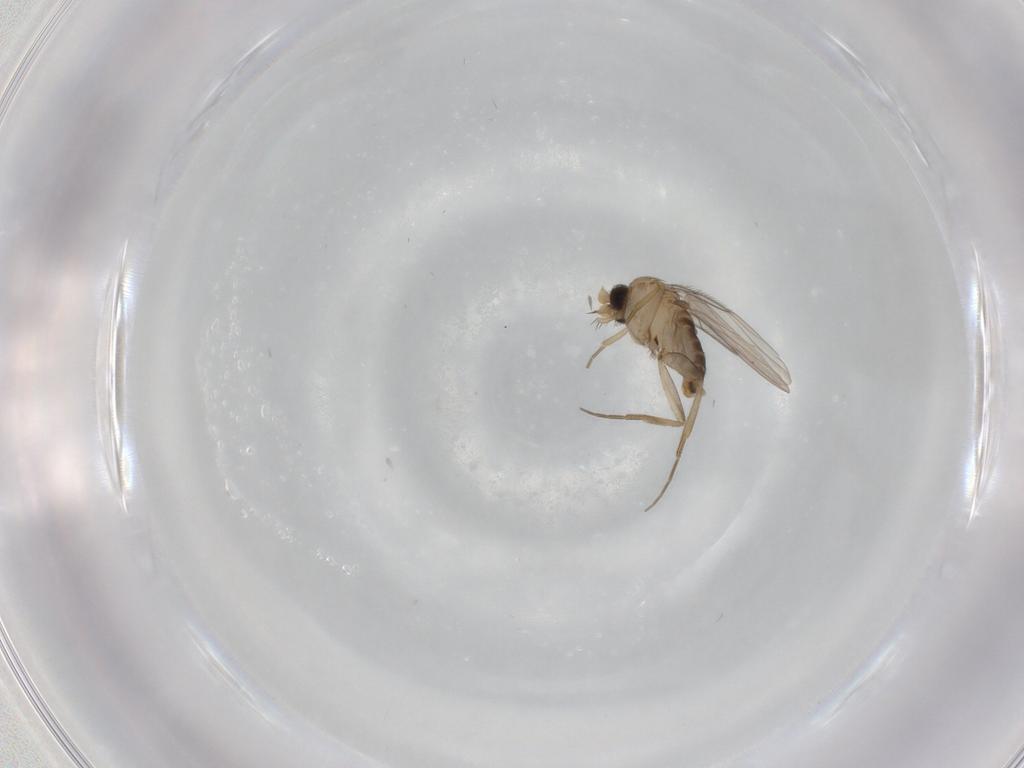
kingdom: Animalia
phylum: Arthropoda
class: Insecta
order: Diptera
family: Phoridae
